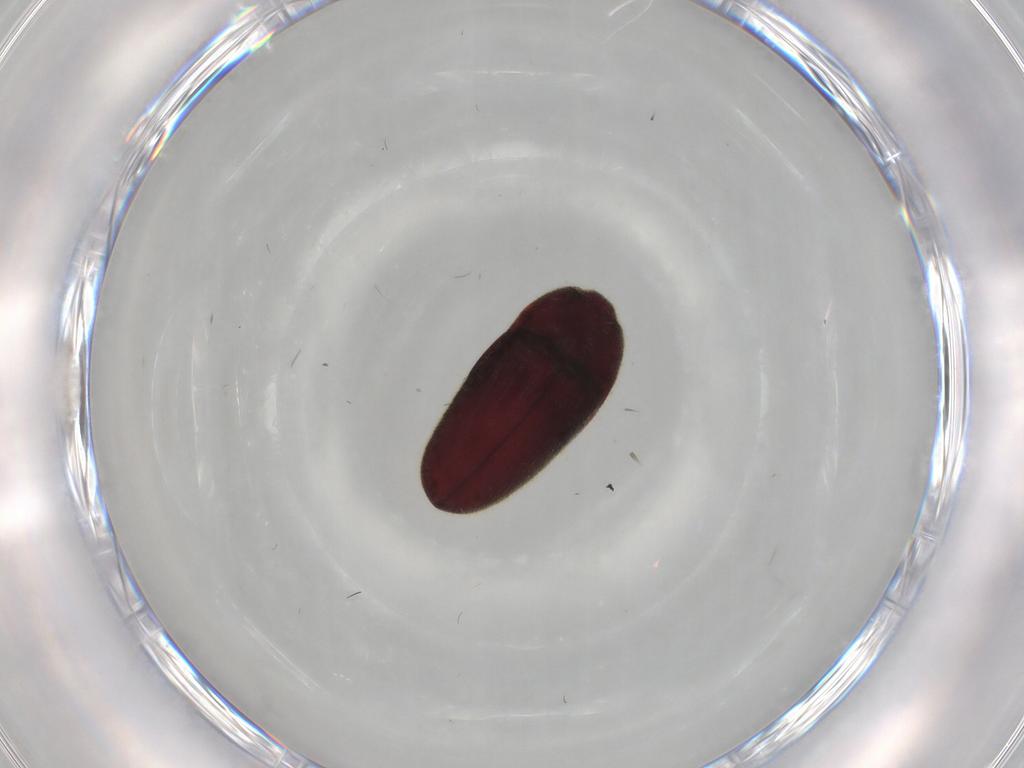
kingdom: Animalia
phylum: Arthropoda
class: Insecta
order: Coleoptera
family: Throscidae
